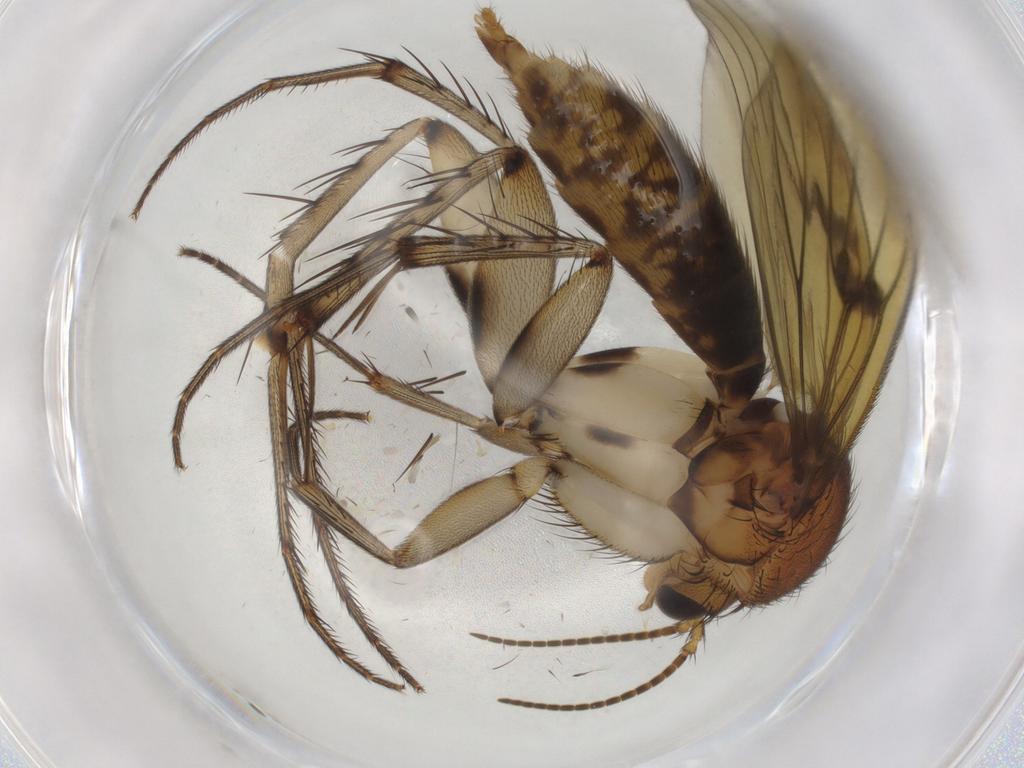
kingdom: Animalia
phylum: Arthropoda
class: Insecta
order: Diptera
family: Limoniidae
